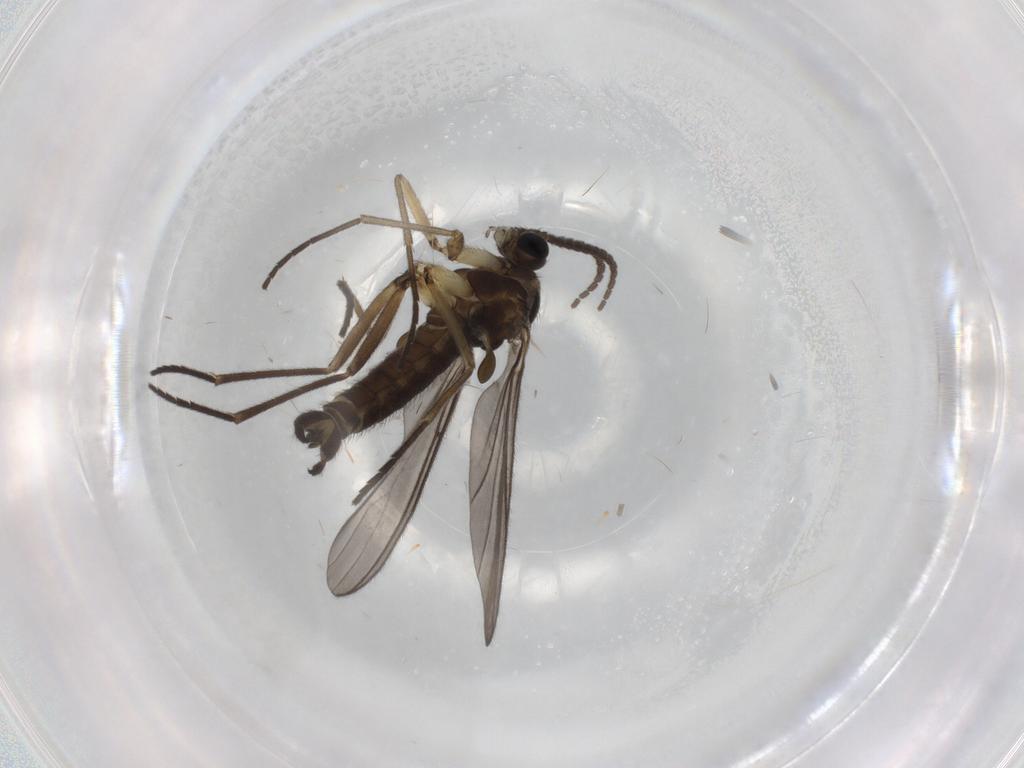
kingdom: Animalia
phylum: Arthropoda
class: Insecta
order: Diptera
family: Sciaridae
